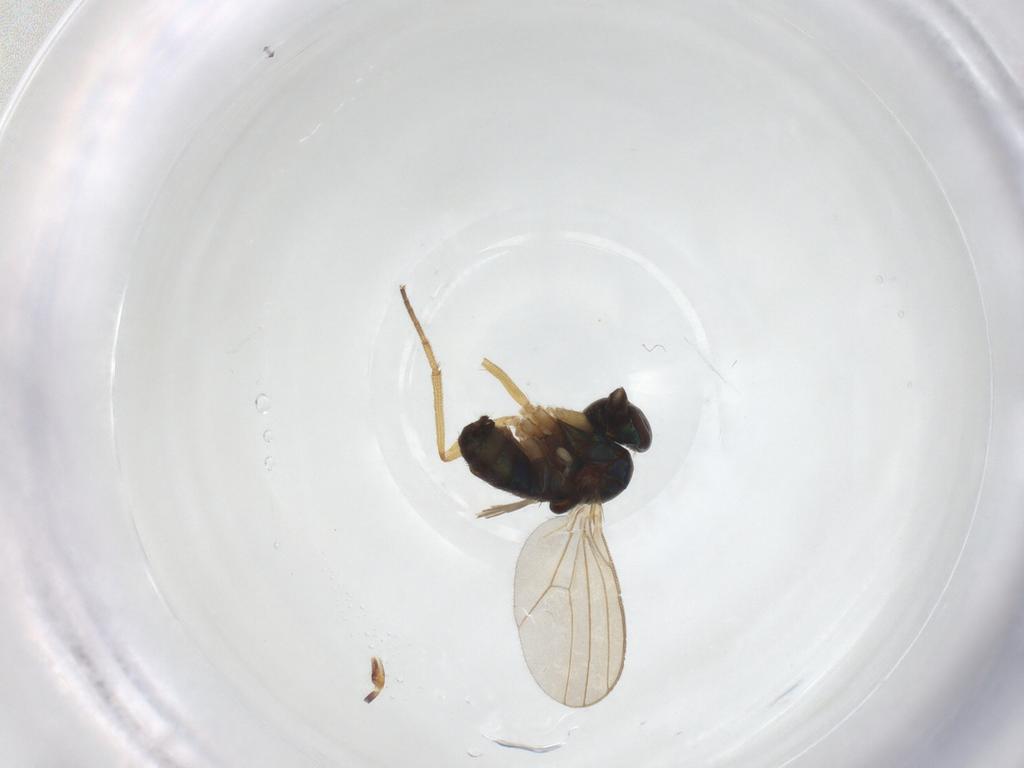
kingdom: Animalia
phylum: Arthropoda
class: Insecta
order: Diptera
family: Dolichopodidae
